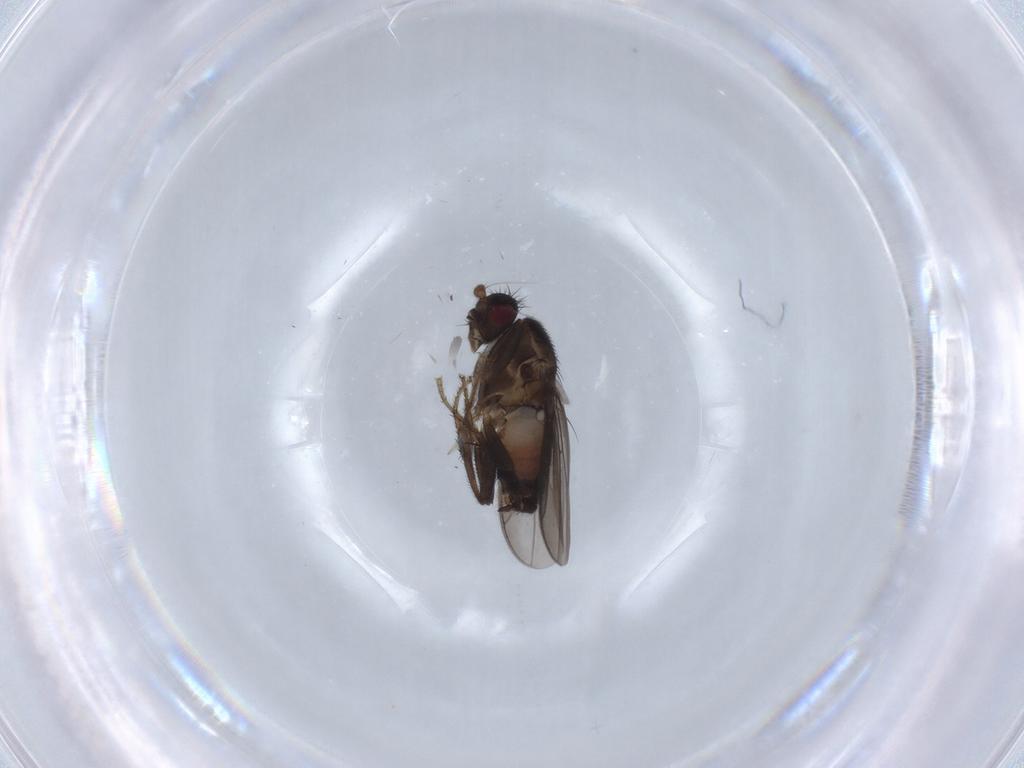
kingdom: Animalia
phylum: Arthropoda
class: Insecta
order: Diptera
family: Sphaeroceridae
